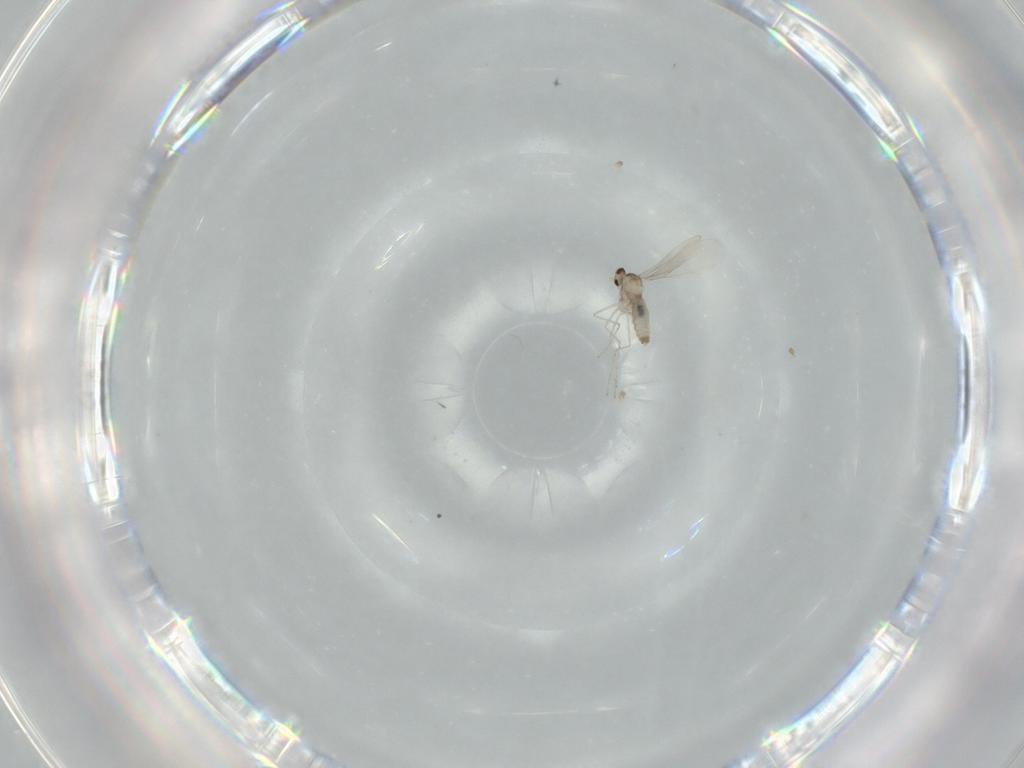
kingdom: Animalia
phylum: Arthropoda
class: Insecta
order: Diptera
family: Cecidomyiidae
